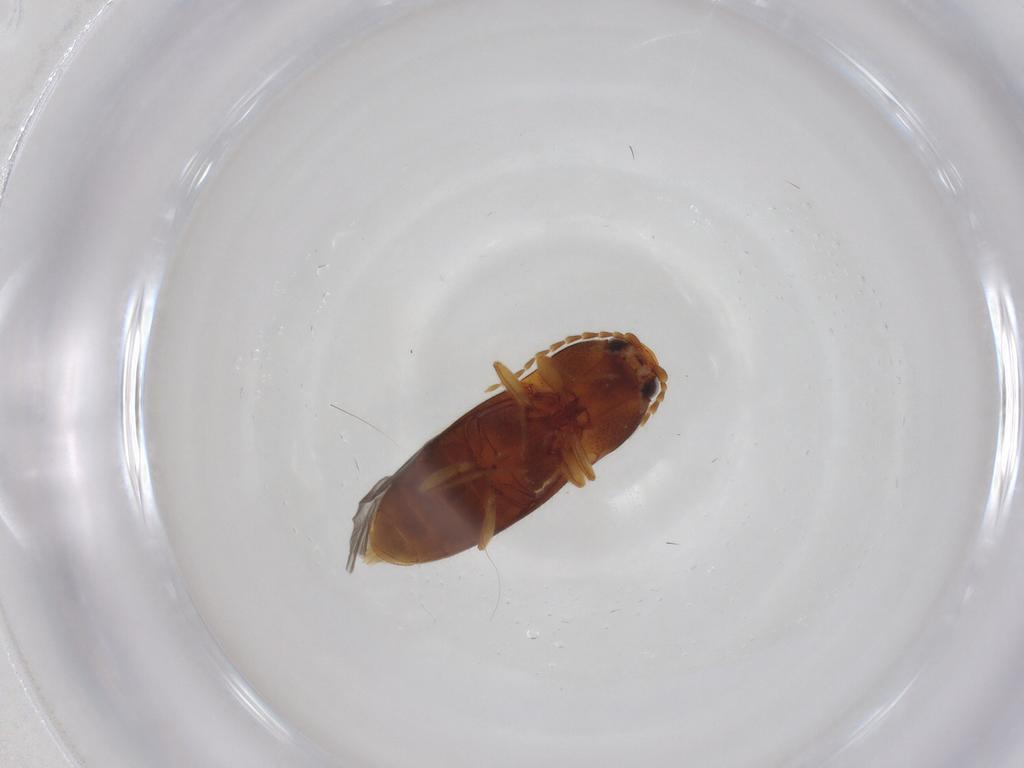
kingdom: Animalia
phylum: Arthropoda
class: Insecta
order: Coleoptera
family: Elateridae
